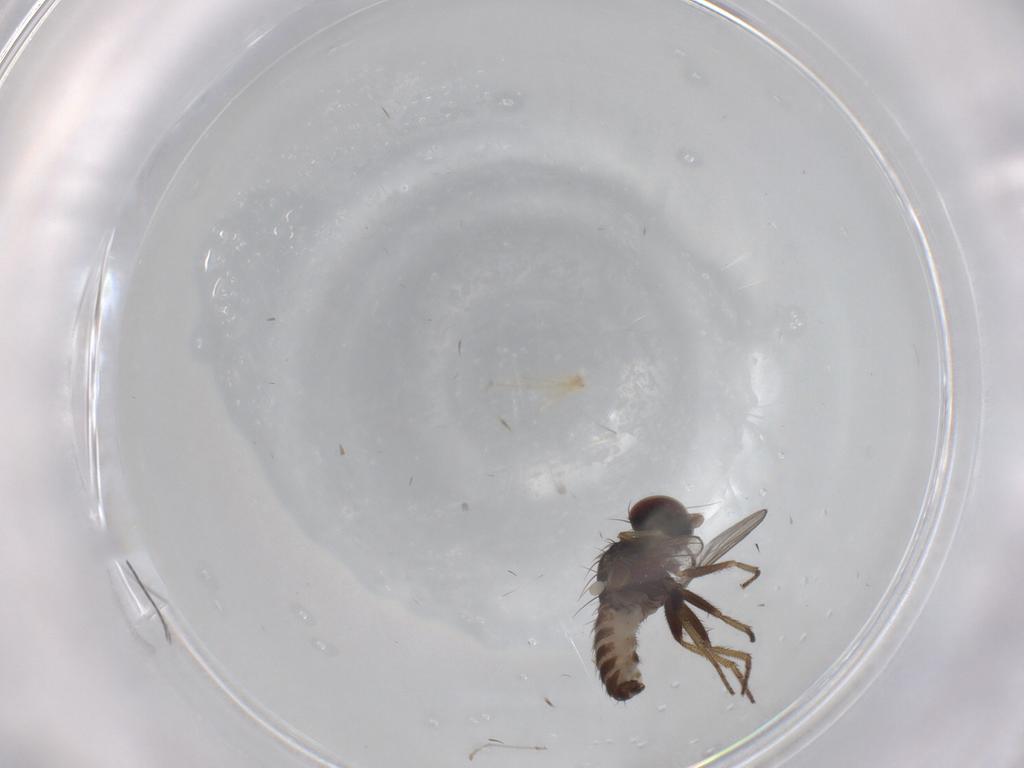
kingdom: Animalia
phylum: Arthropoda
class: Insecta
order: Diptera
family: Dolichopodidae
